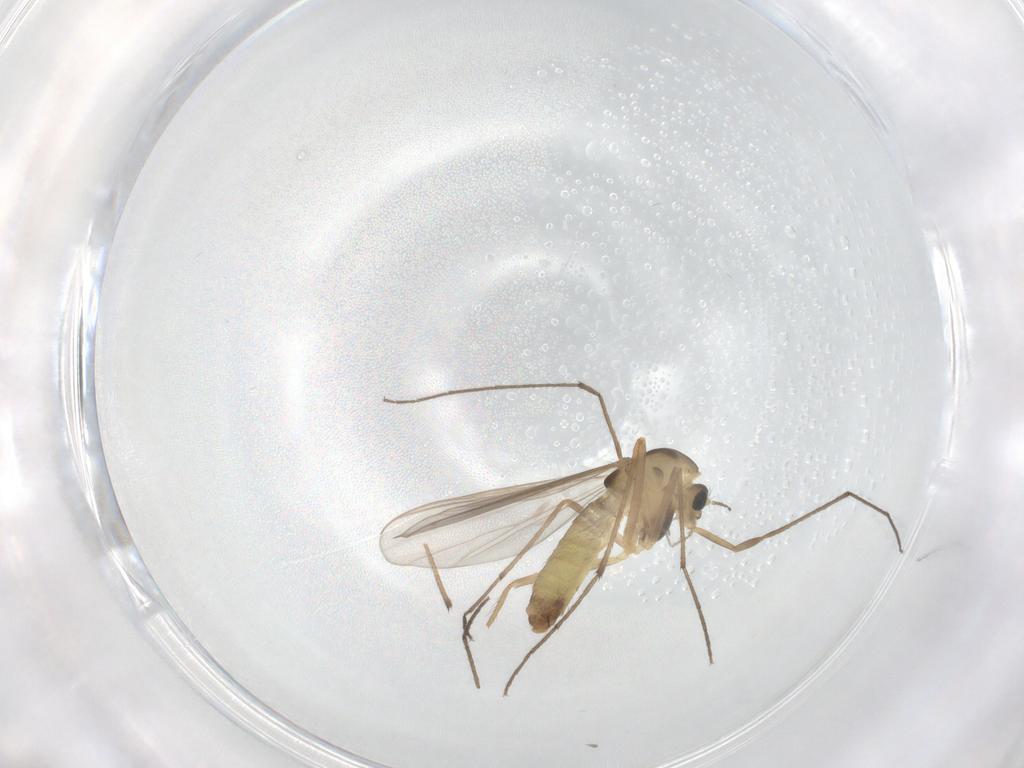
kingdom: Animalia
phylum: Arthropoda
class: Insecta
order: Diptera
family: Chironomidae
